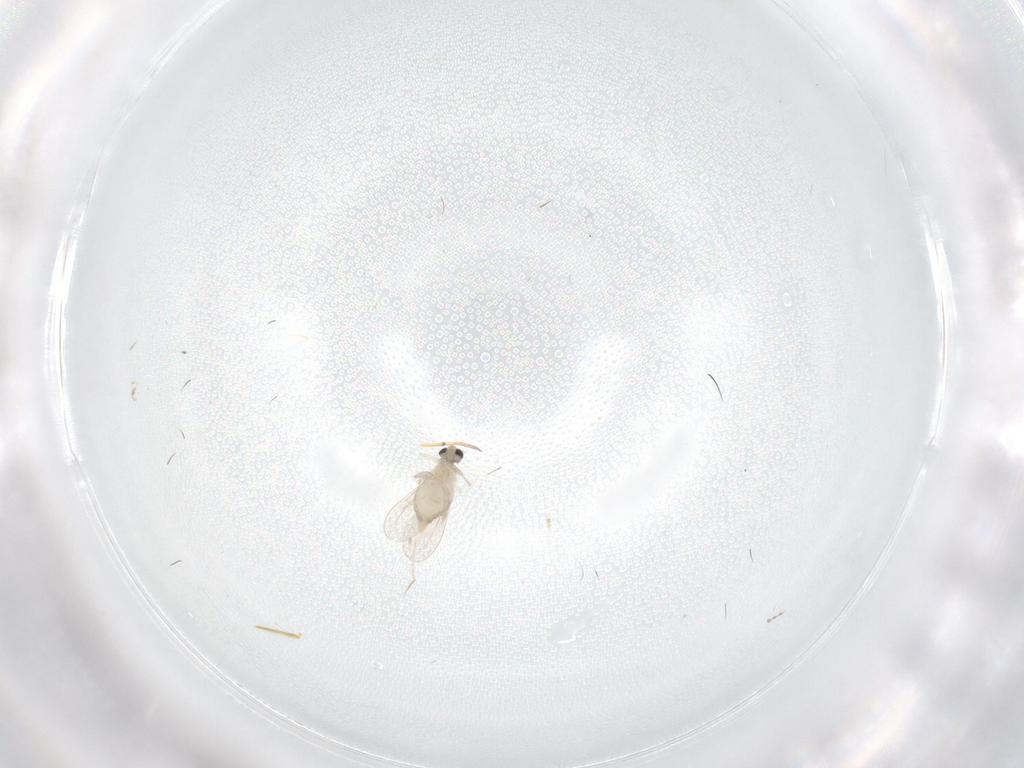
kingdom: Animalia
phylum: Arthropoda
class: Insecta
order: Diptera
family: Cecidomyiidae
